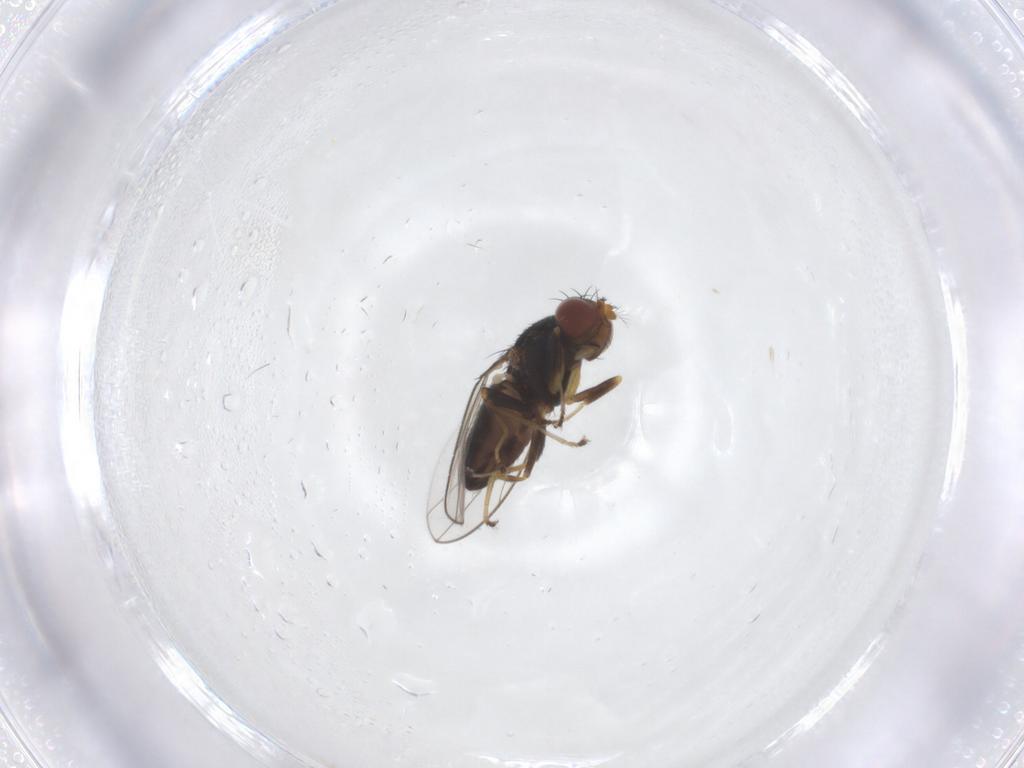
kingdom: Animalia
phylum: Arthropoda
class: Insecta
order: Diptera
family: Ephydridae
